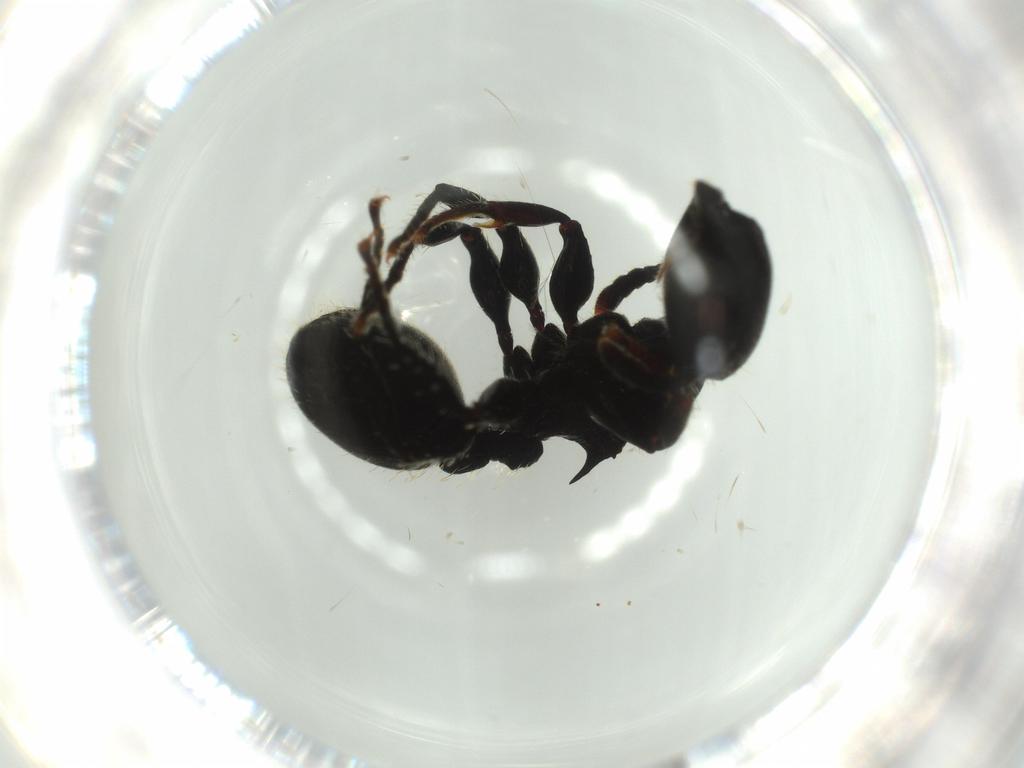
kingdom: Animalia
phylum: Arthropoda
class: Insecta
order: Hymenoptera
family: Formicidae
